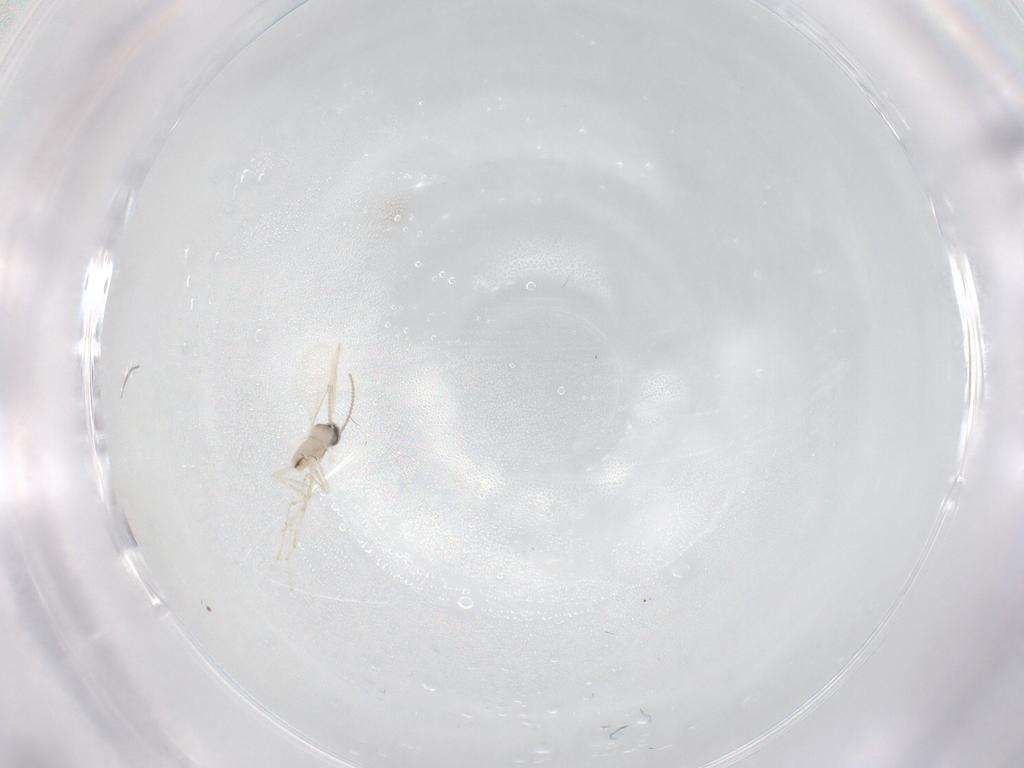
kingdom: Animalia
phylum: Arthropoda
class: Insecta
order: Diptera
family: Cecidomyiidae
